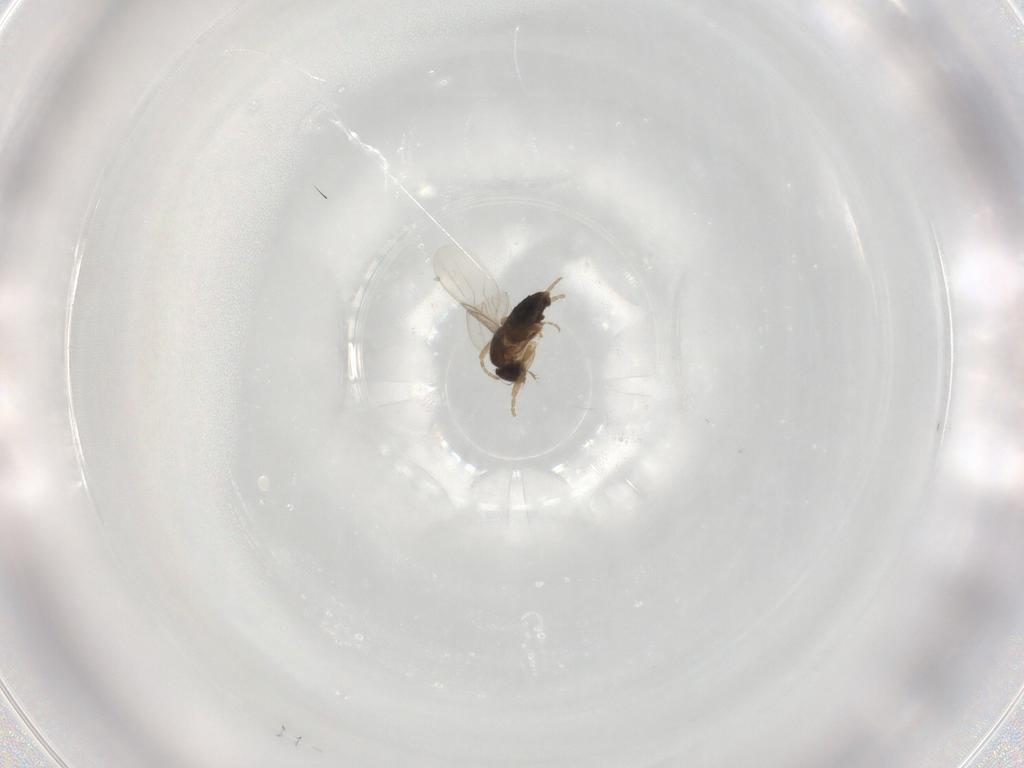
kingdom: Animalia
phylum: Arthropoda
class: Insecta
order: Diptera
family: Phoridae
